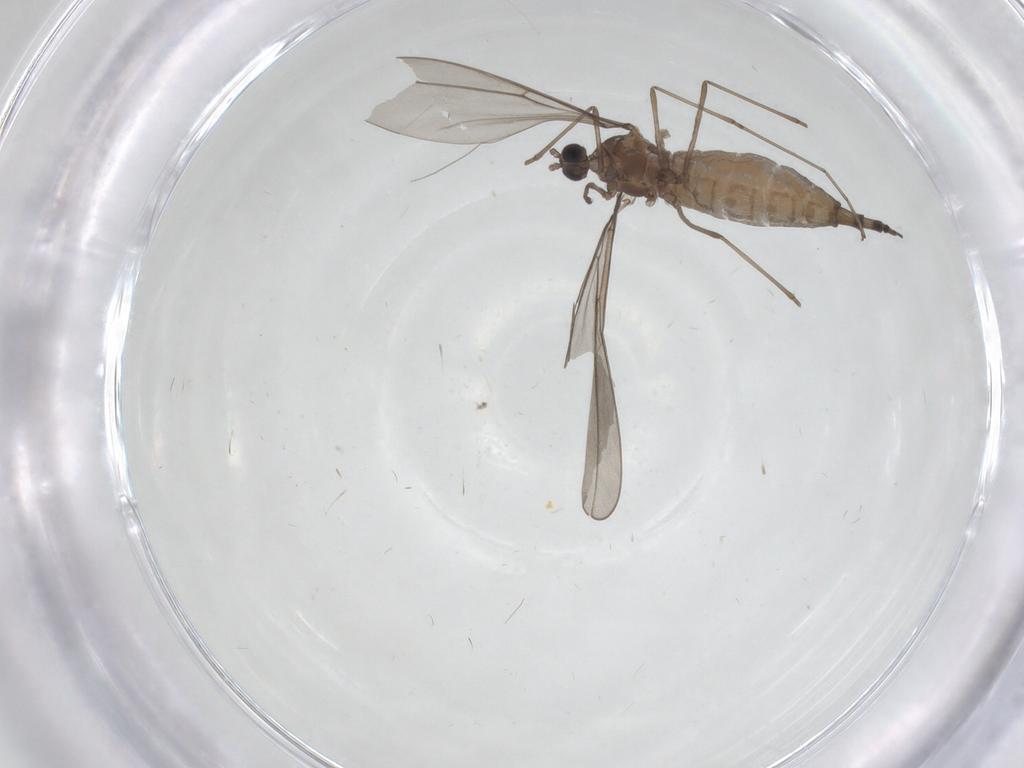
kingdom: Animalia
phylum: Arthropoda
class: Insecta
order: Diptera
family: Cecidomyiidae
